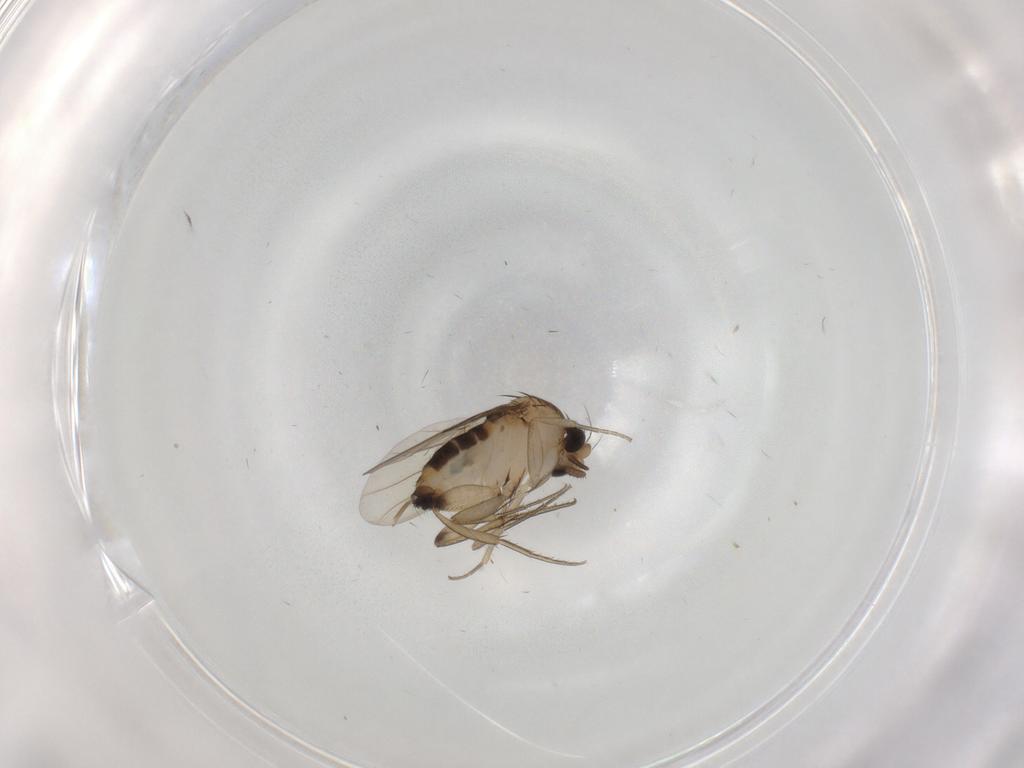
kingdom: Animalia
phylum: Arthropoda
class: Insecta
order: Diptera
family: Phoridae
